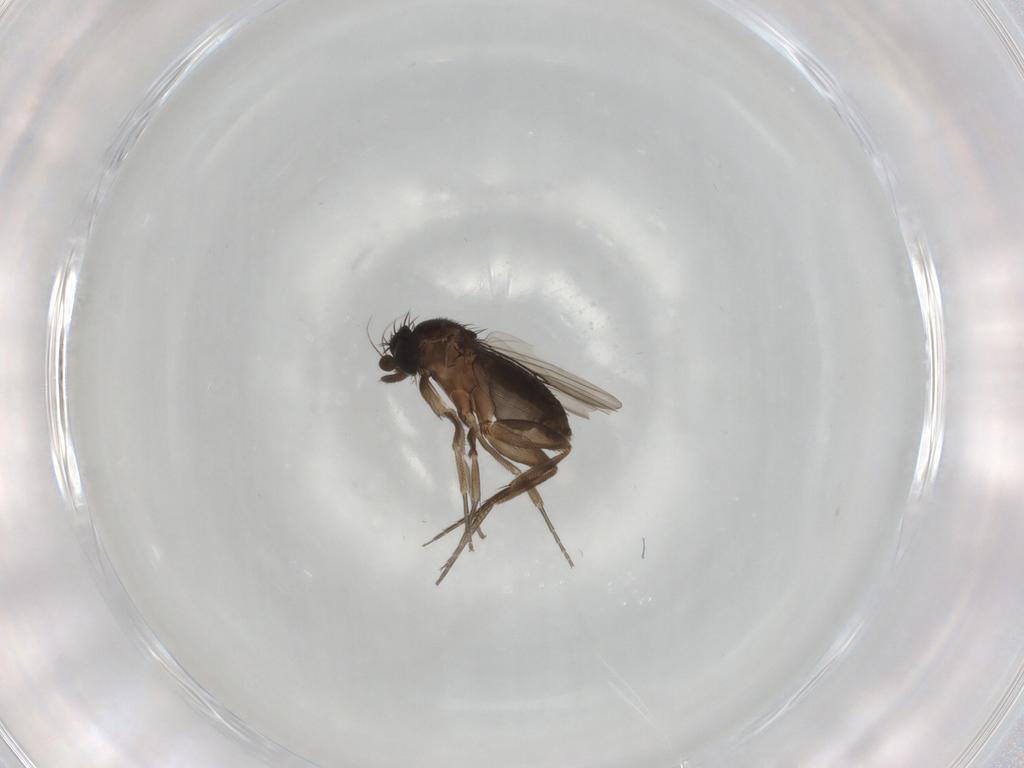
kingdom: Animalia
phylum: Arthropoda
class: Insecta
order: Diptera
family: Phoridae
